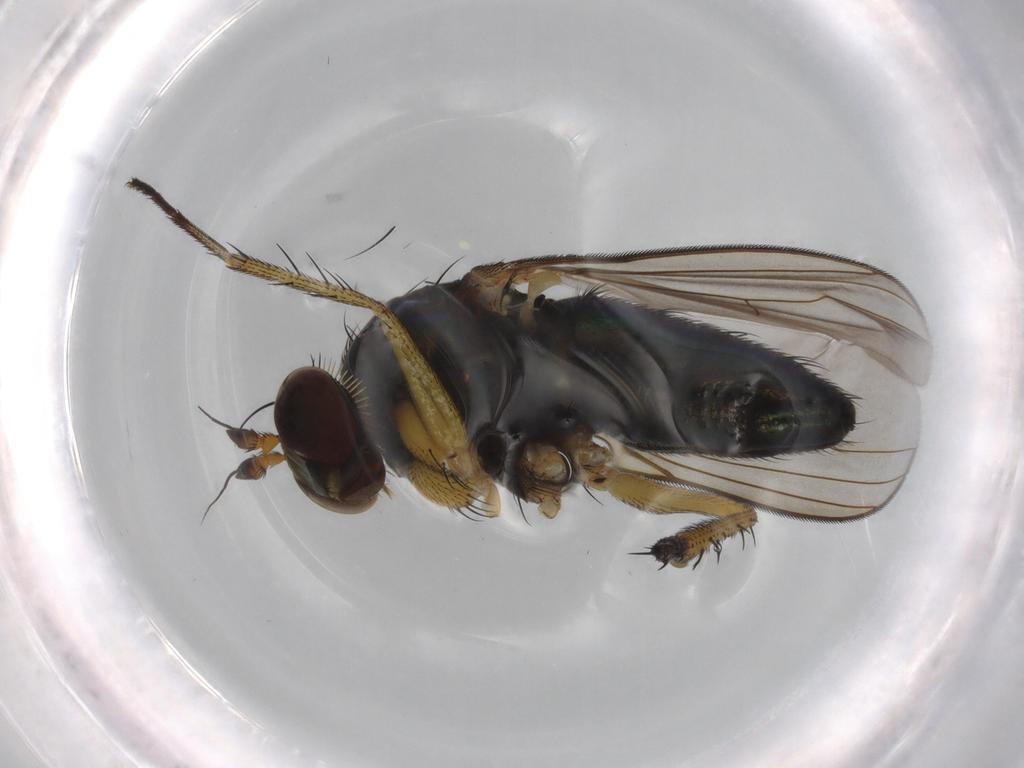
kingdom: Animalia
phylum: Arthropoda
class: Insecta
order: Diptera
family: Dolichopodidae
